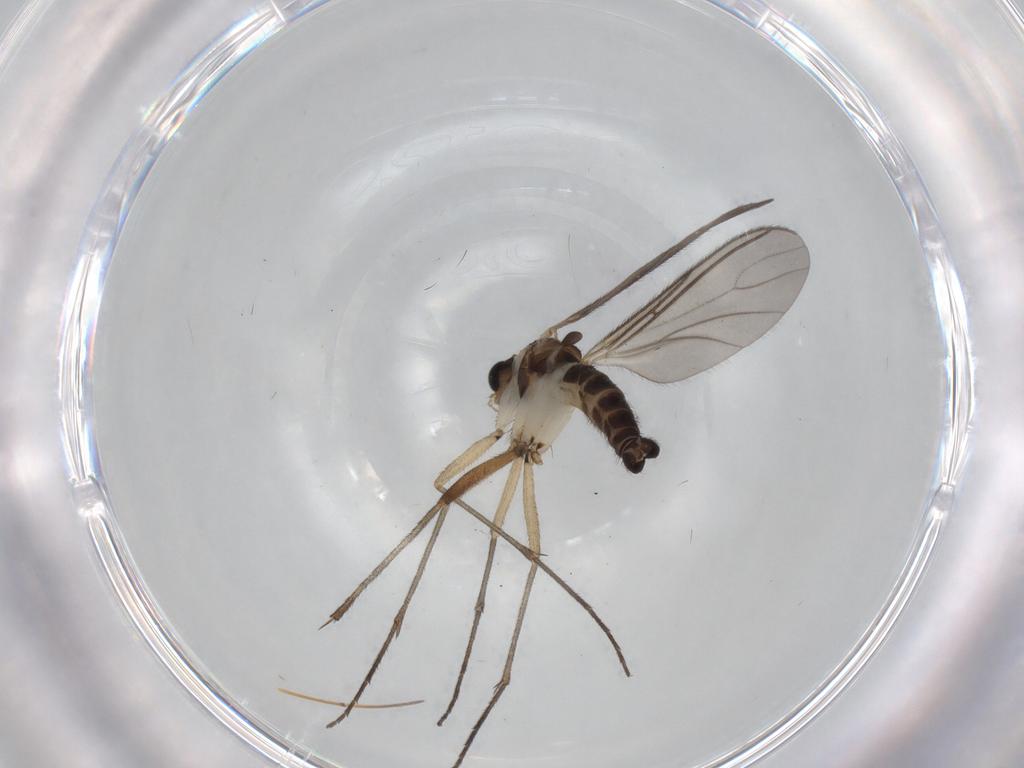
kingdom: Animalia
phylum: Arthropoda
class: Insecta
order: Diptera
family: Sciaridae
